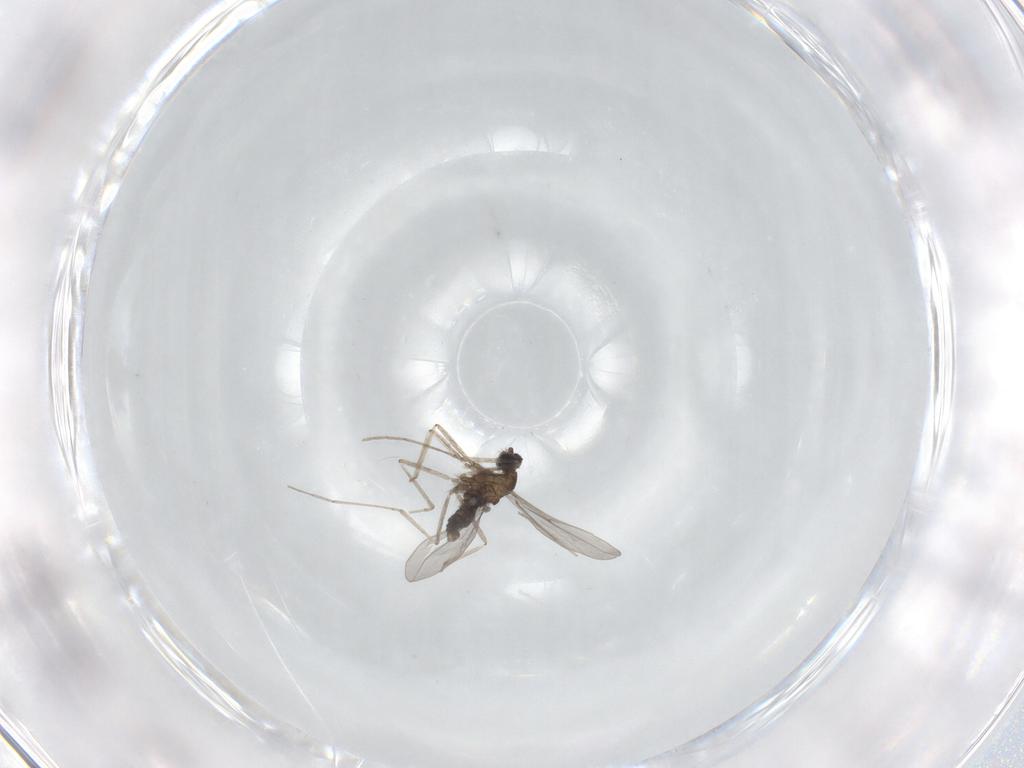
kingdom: Animalia
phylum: Arthropoda
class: Insecta
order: Diptera
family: Cecidomyiidae
